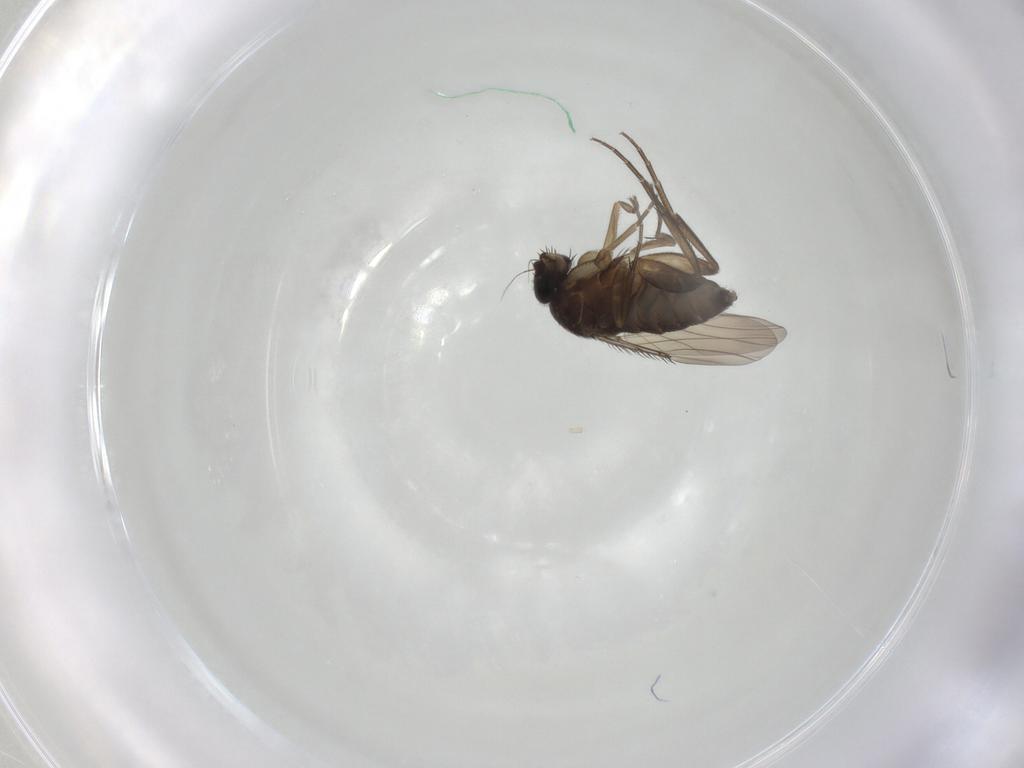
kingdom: Animalia
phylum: Arthropoda
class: Insecta
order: Diptera
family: Phoridae
